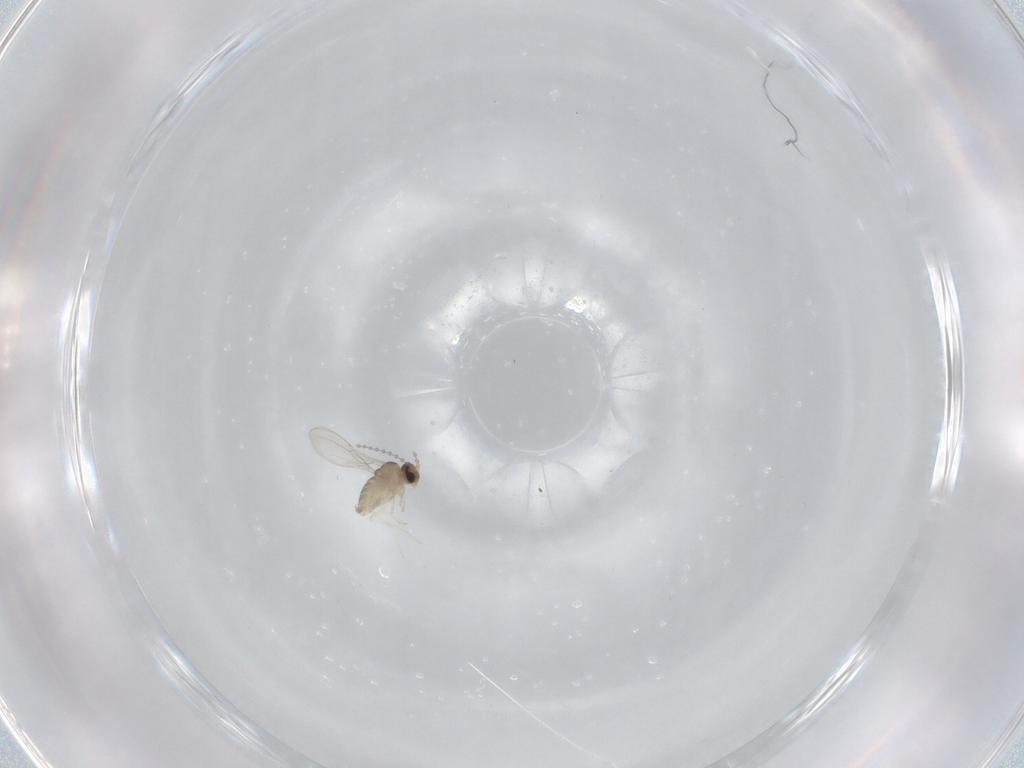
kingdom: Animalia
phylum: Arthropoda
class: Insecta
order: Diptera
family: Cecidomyiidae
